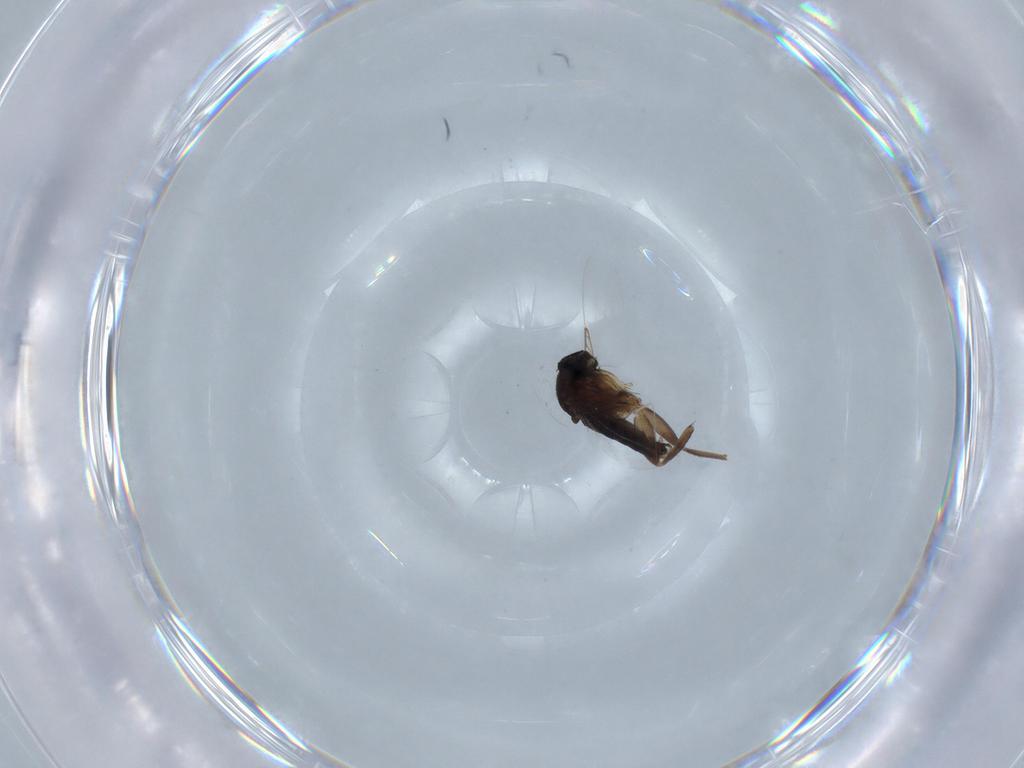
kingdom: Animalia
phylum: Arthropoda
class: Insecta
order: Diptera
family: Phoridae
